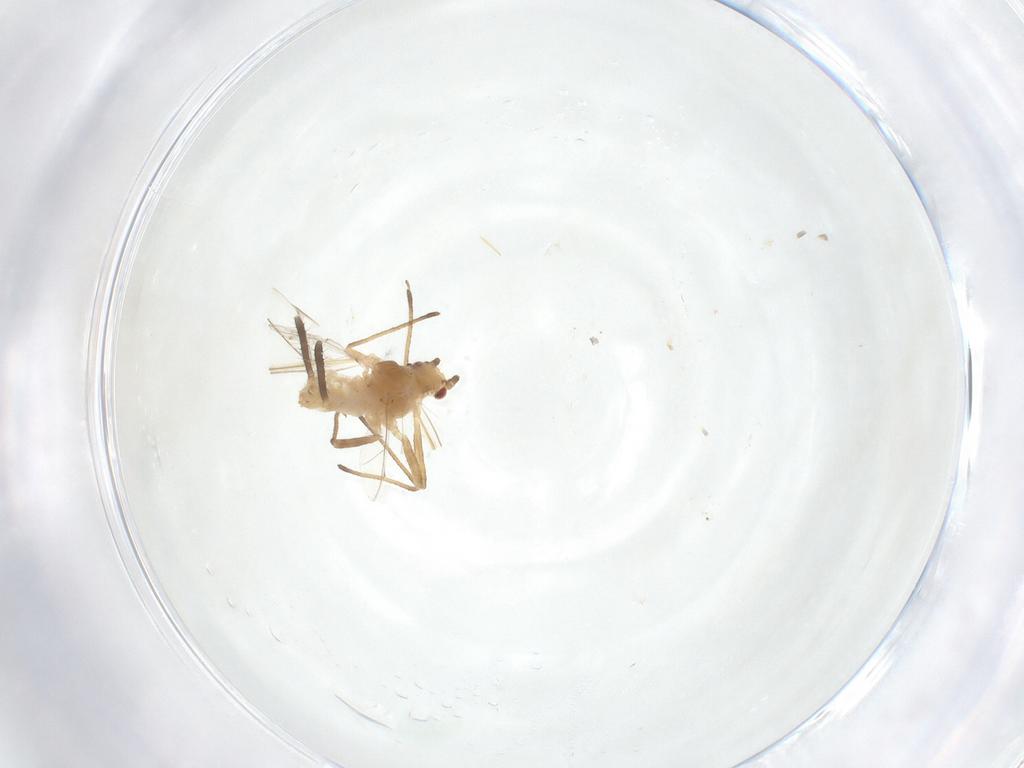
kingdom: Animalia
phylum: Arthropoda
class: Insecta
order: Hemiptera
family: Aphididae
